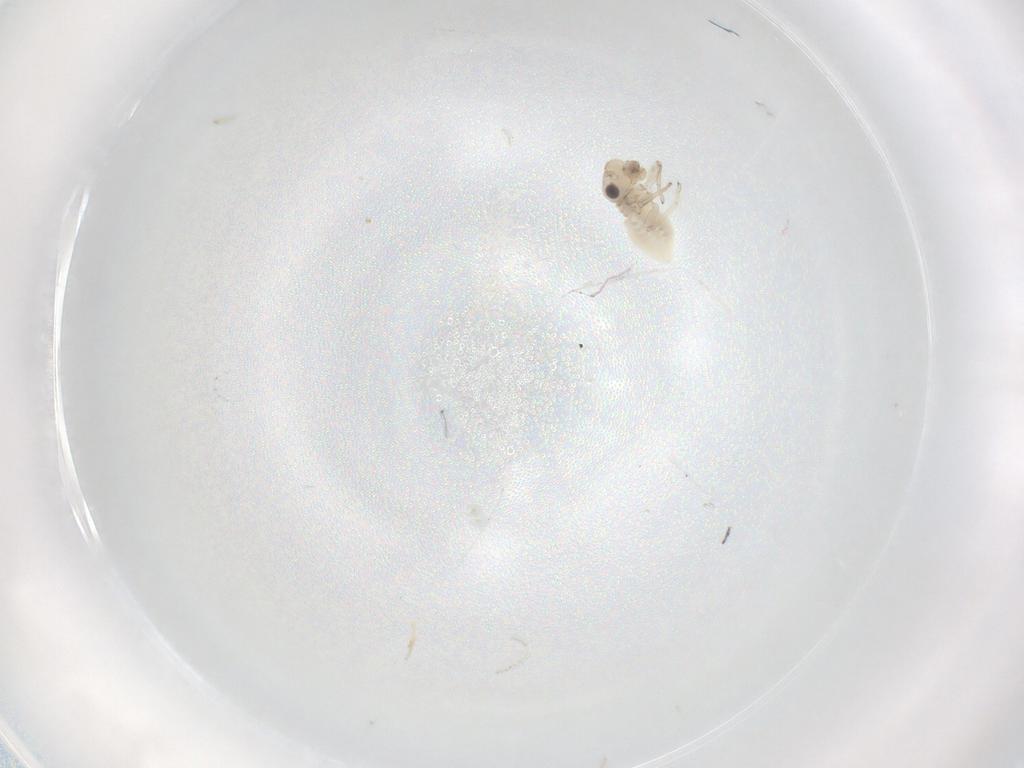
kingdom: Animalia
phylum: Arthropoda
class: Insecta
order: Psocodea
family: Caeciliusidae
